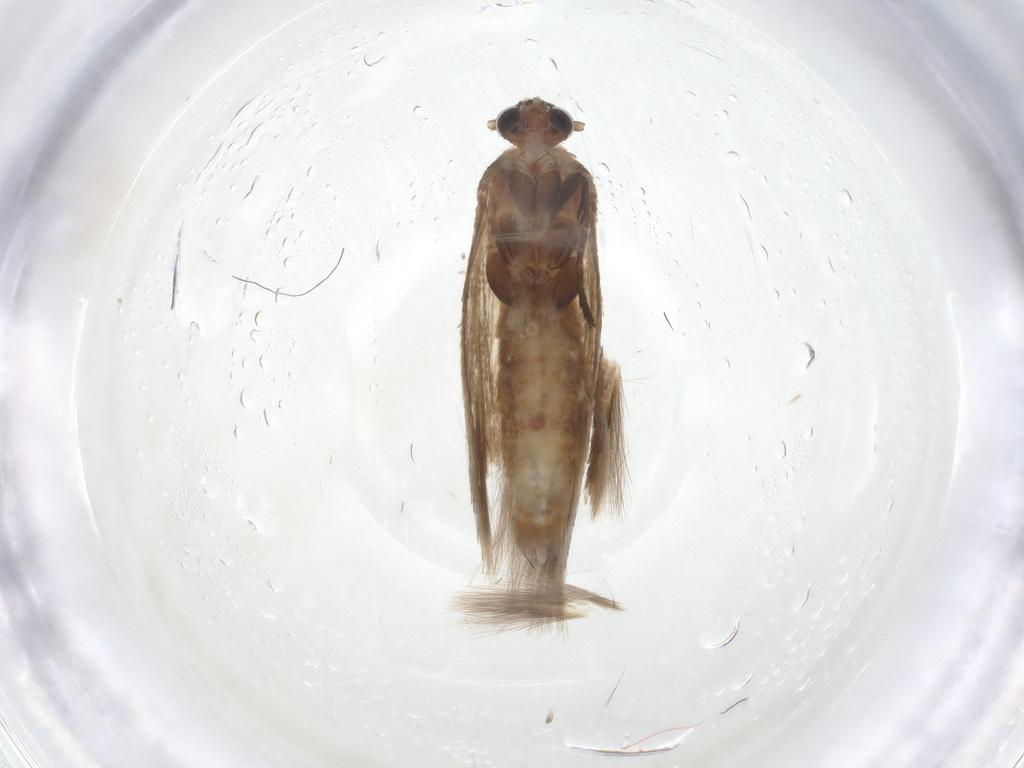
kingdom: Animalia
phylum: Arthropoda
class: Insecta
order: Lepidoptera
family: Cosmopterigidae
